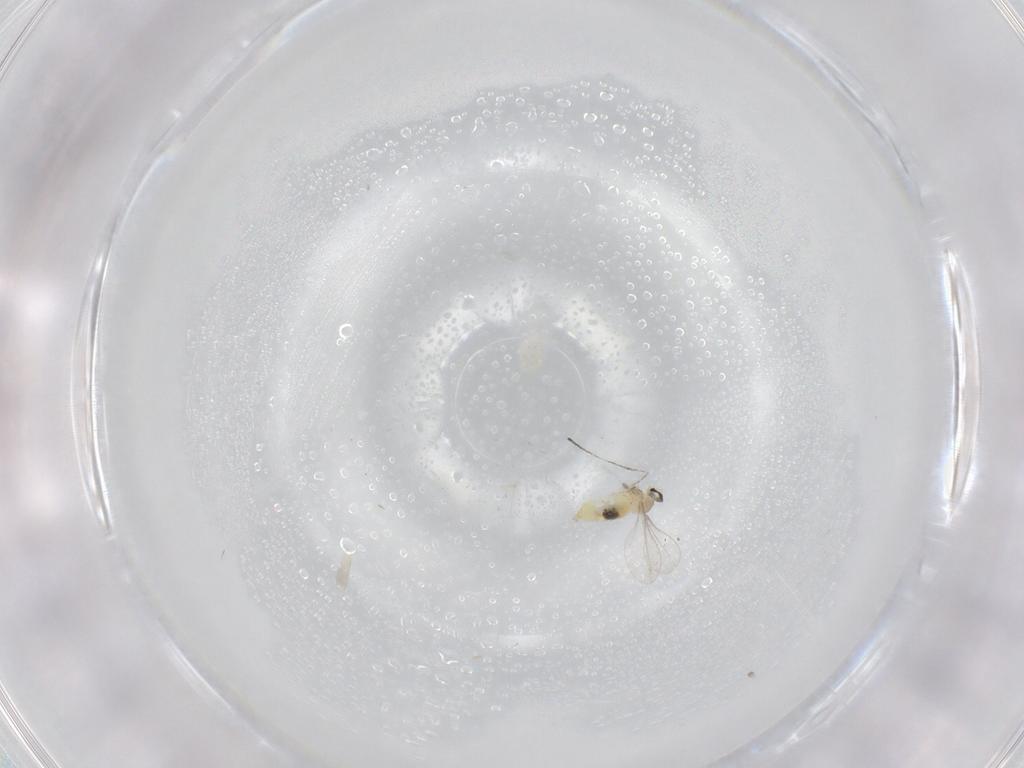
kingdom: Animalia
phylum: Arthropoda
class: Insecta
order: Diptera
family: Cecidomyiidae
